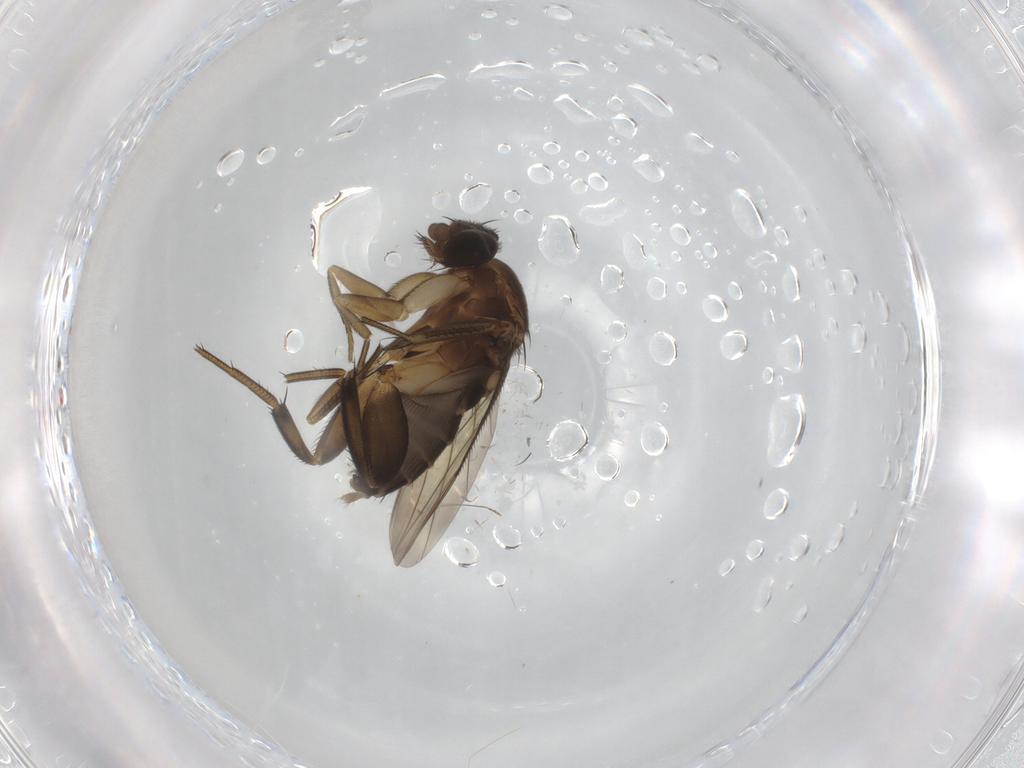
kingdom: Animalia
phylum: Arthropoda
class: Insecta
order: Diptera
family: Phoridae
